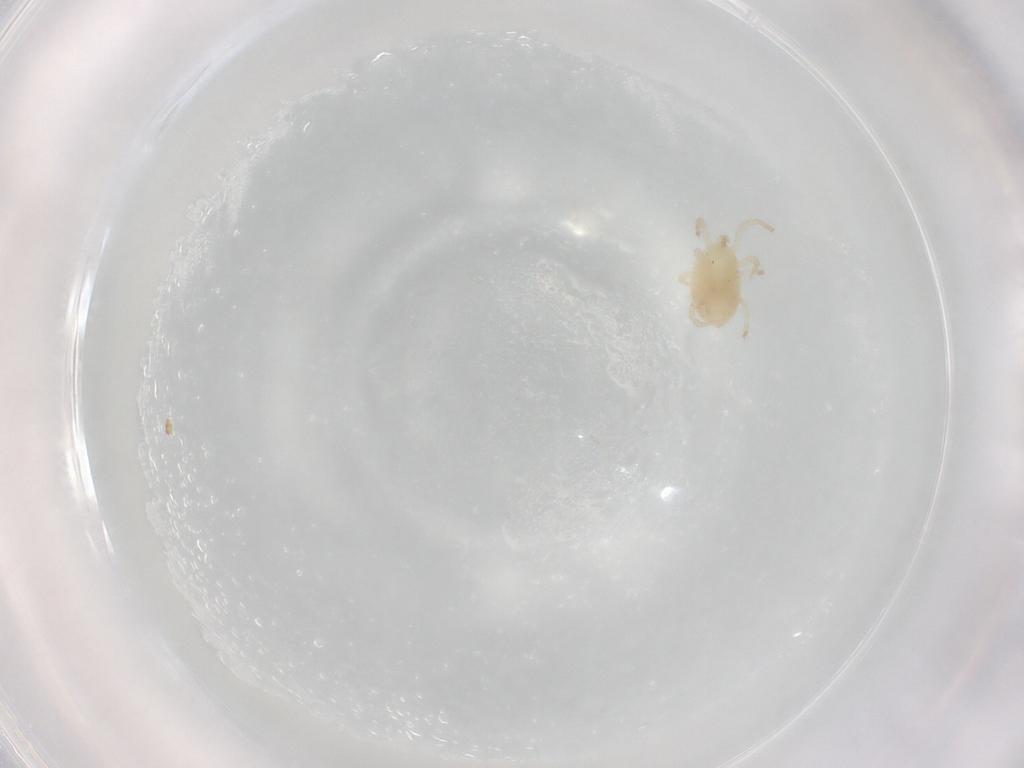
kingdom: Animalia
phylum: Arthropoda
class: Arachnida
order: Mesostigmata
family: Parasitidae
